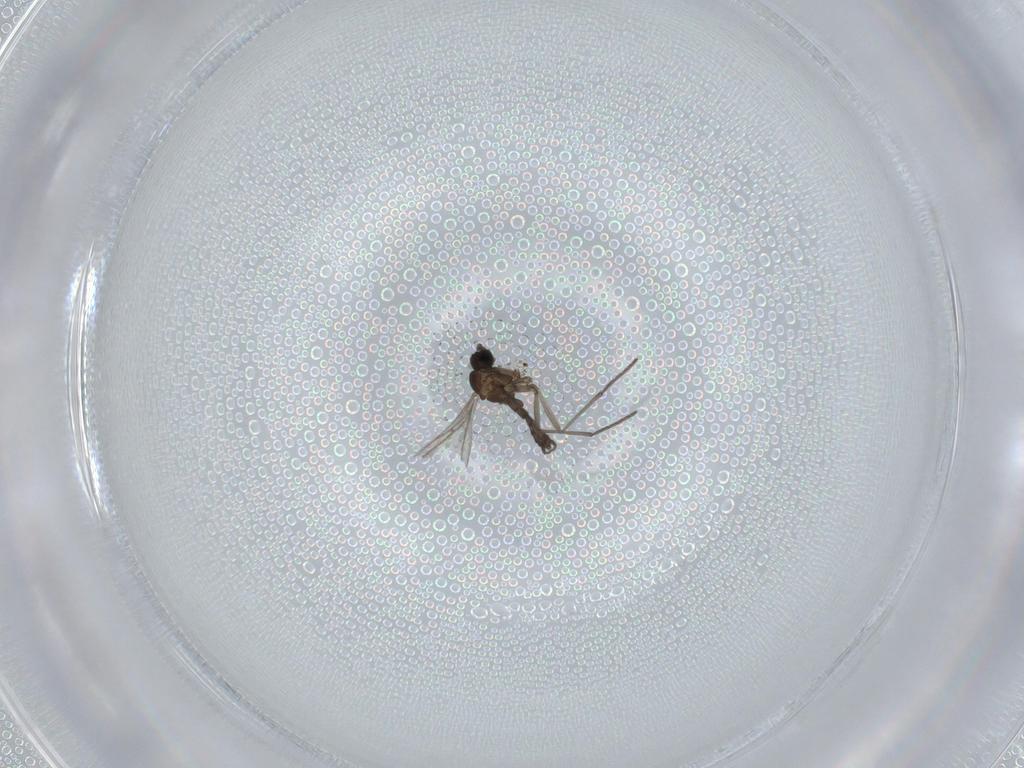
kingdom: Animalia
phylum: Arthropoda
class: Insecta
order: Diptera
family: Sciaridae
